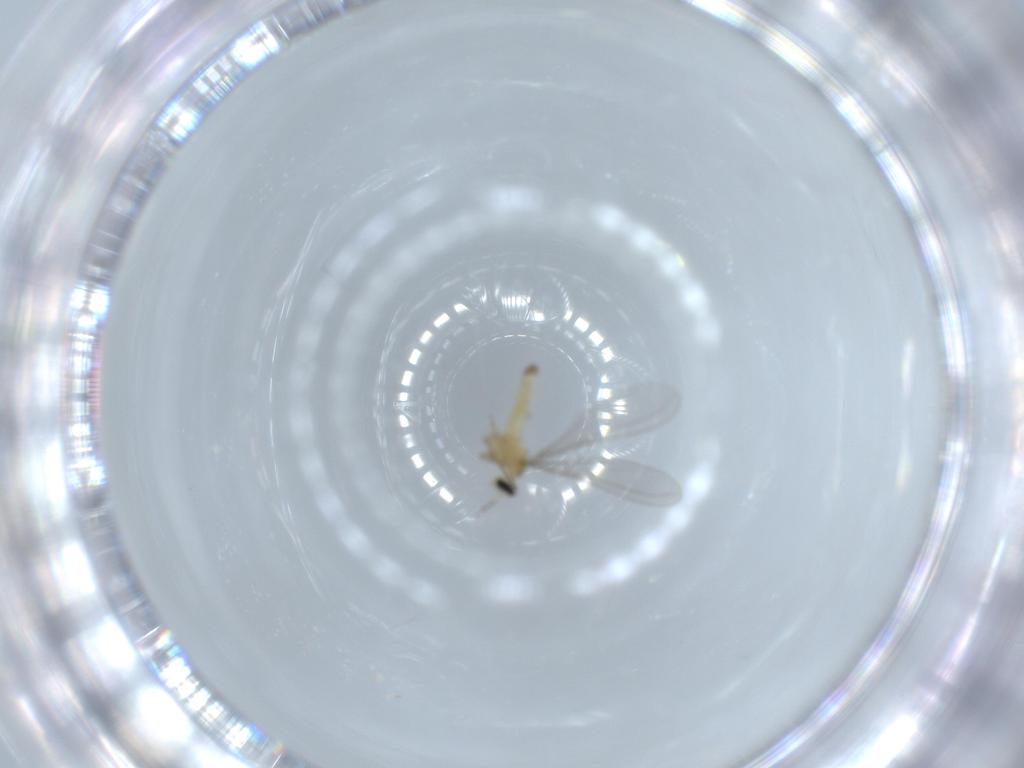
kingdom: Animalia
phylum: Arthropoda
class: Insecta
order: Diptera
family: Cecidomyiidae
